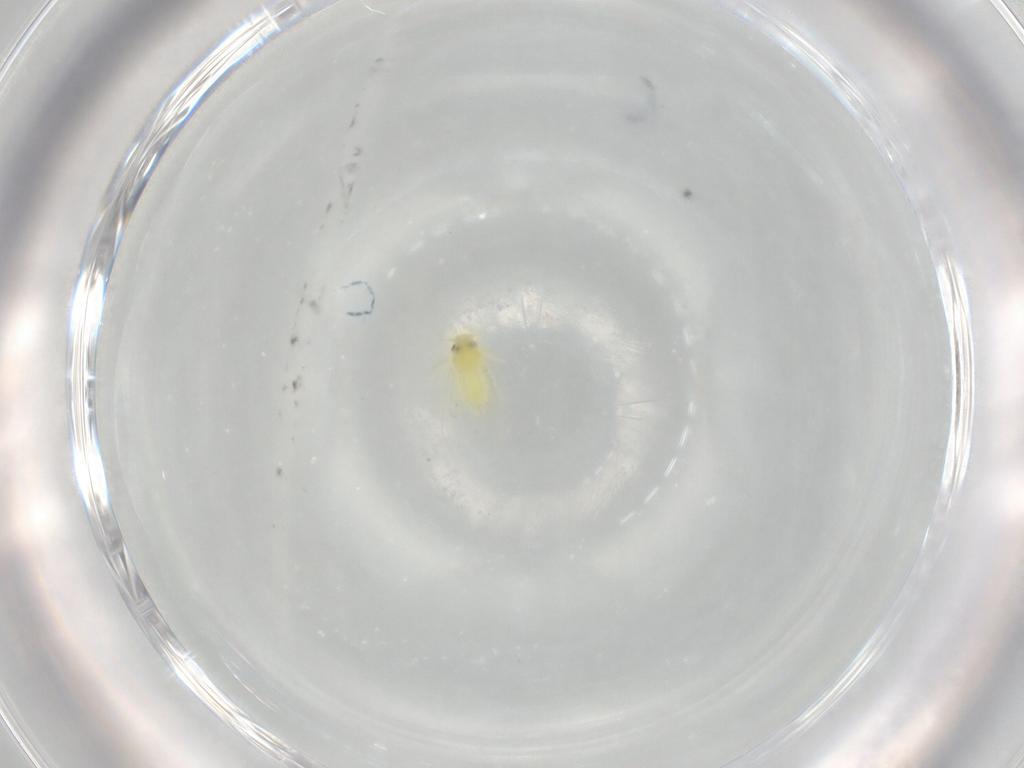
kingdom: Animalia
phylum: Arthropoda
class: Insecta
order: Hemiptera
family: Aleyrodidae
